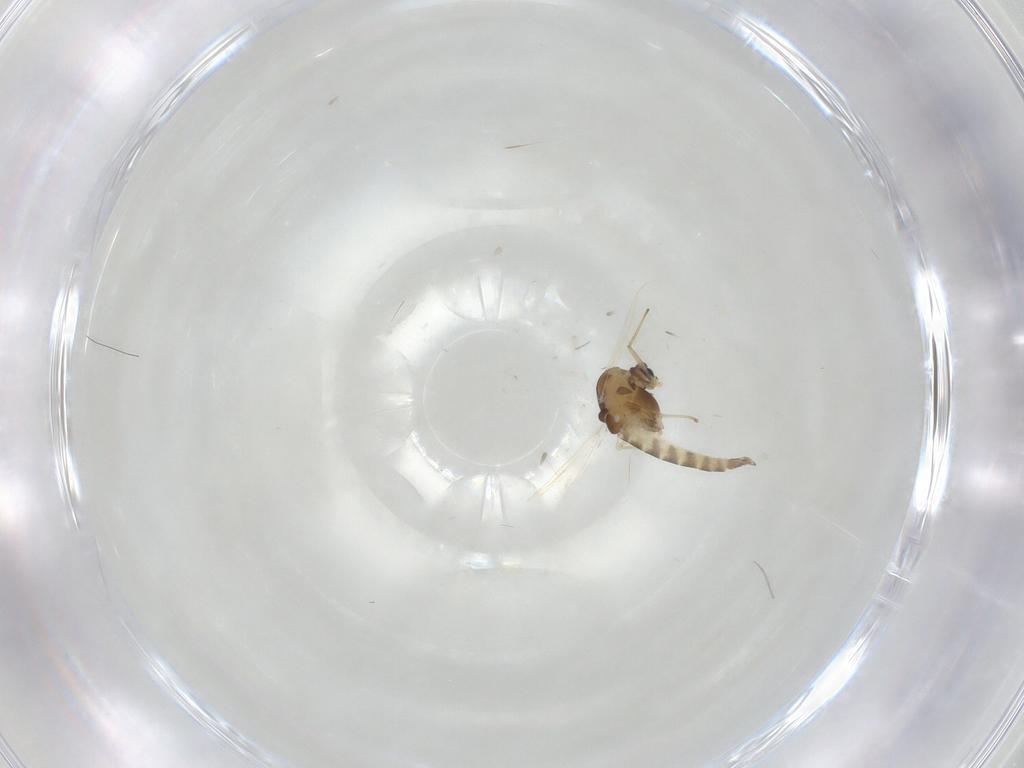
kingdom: Animalia
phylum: Arthropoda
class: Insecta
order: Diptera
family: Chironomidae
